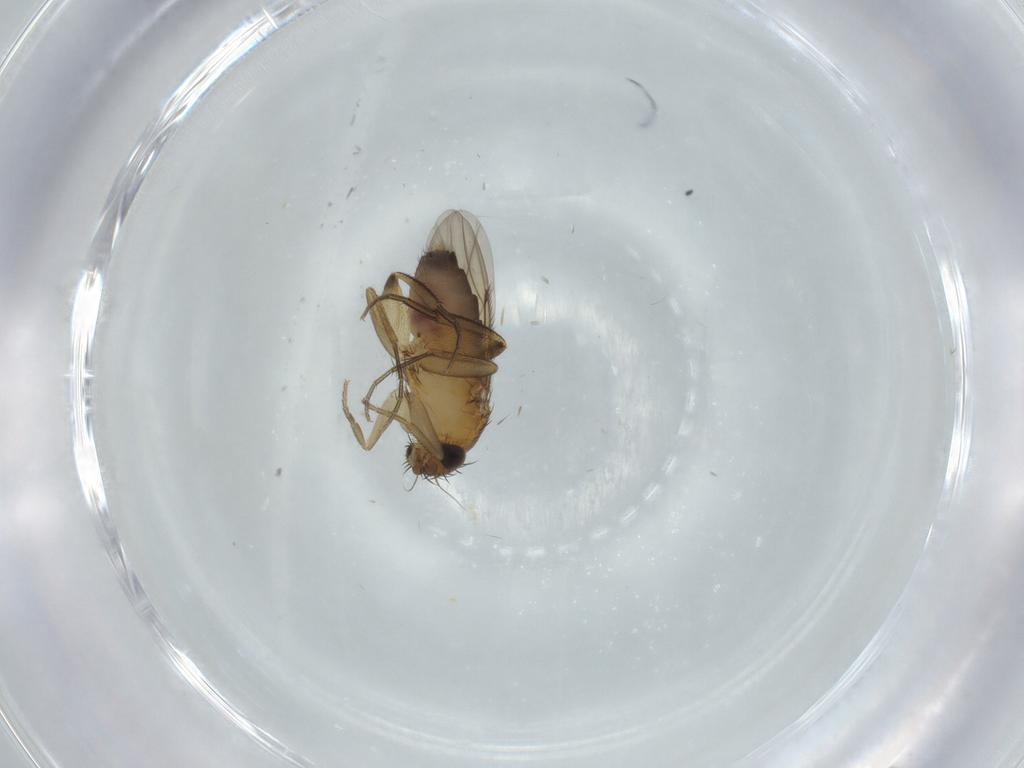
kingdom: Animalia
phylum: Arthropoda
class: Insecta
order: Diptera
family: Phoridae
